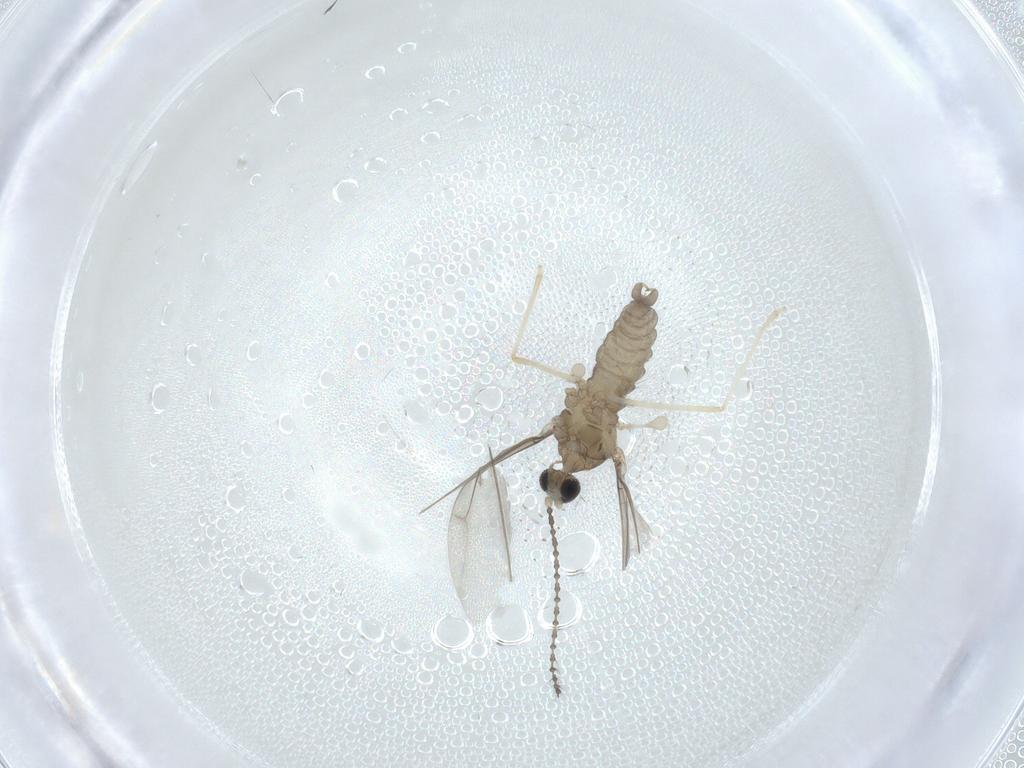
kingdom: Animalia
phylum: Arthropoda
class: Insecta
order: Diptera
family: Cecidomyiidae
